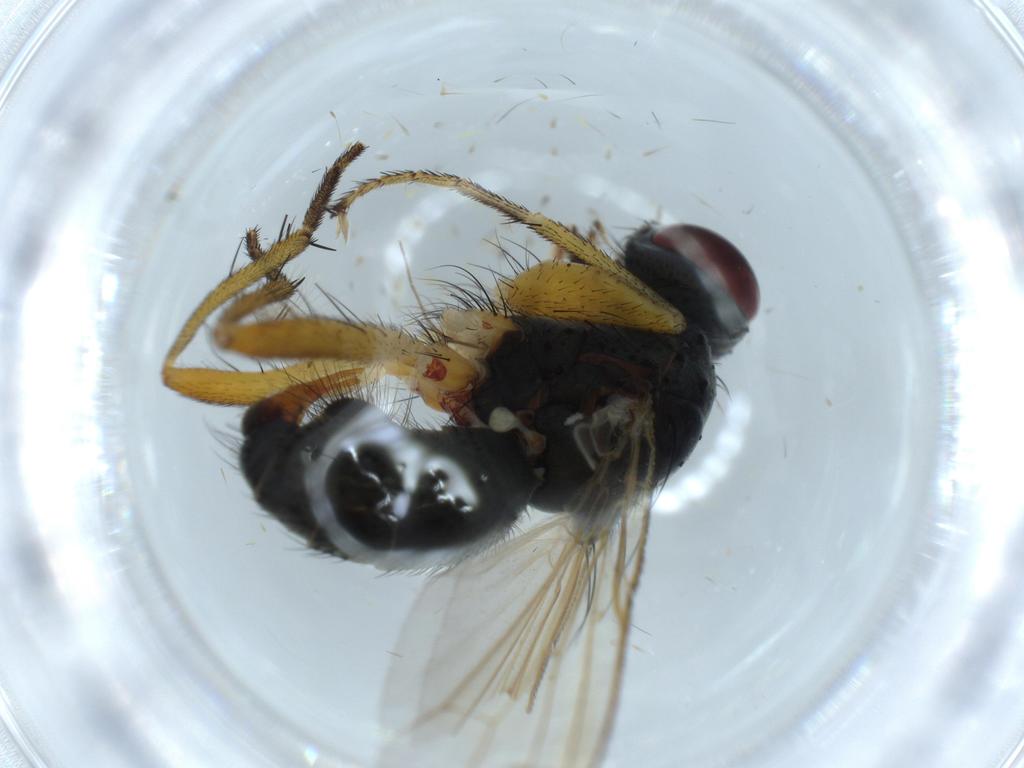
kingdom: Animalia
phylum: Arthropoda
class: Insecta
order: Diptera
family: Muscidae
